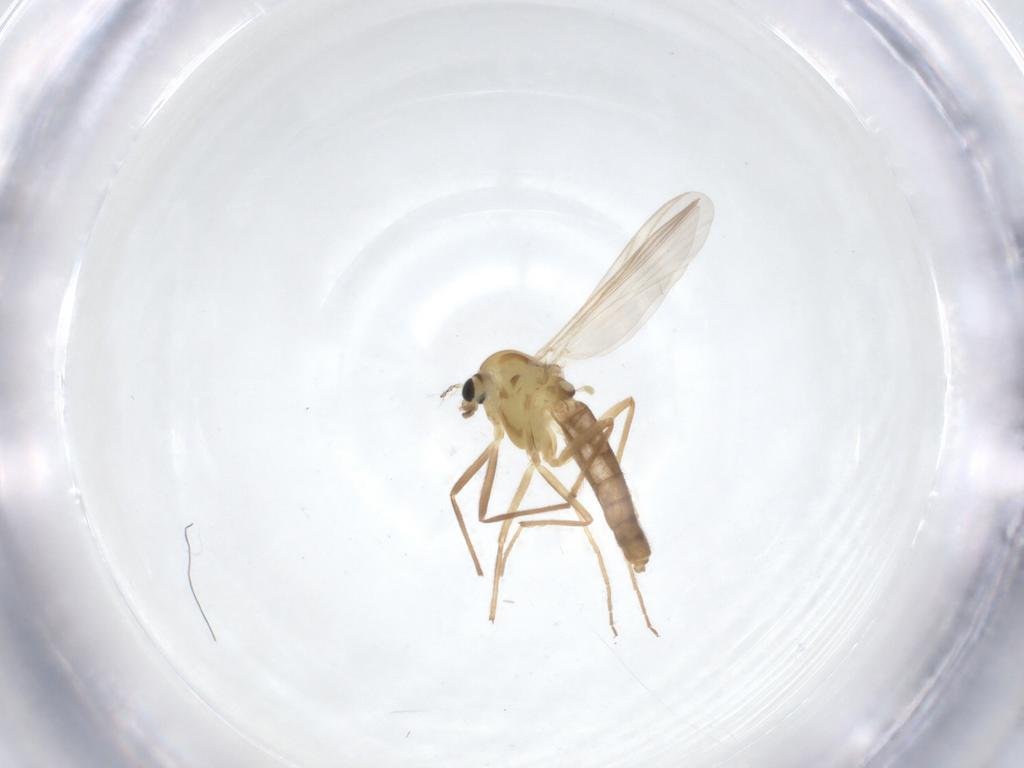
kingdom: Animalia
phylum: Arthropoda
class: Insecta
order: Diptera
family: Chironomidae
